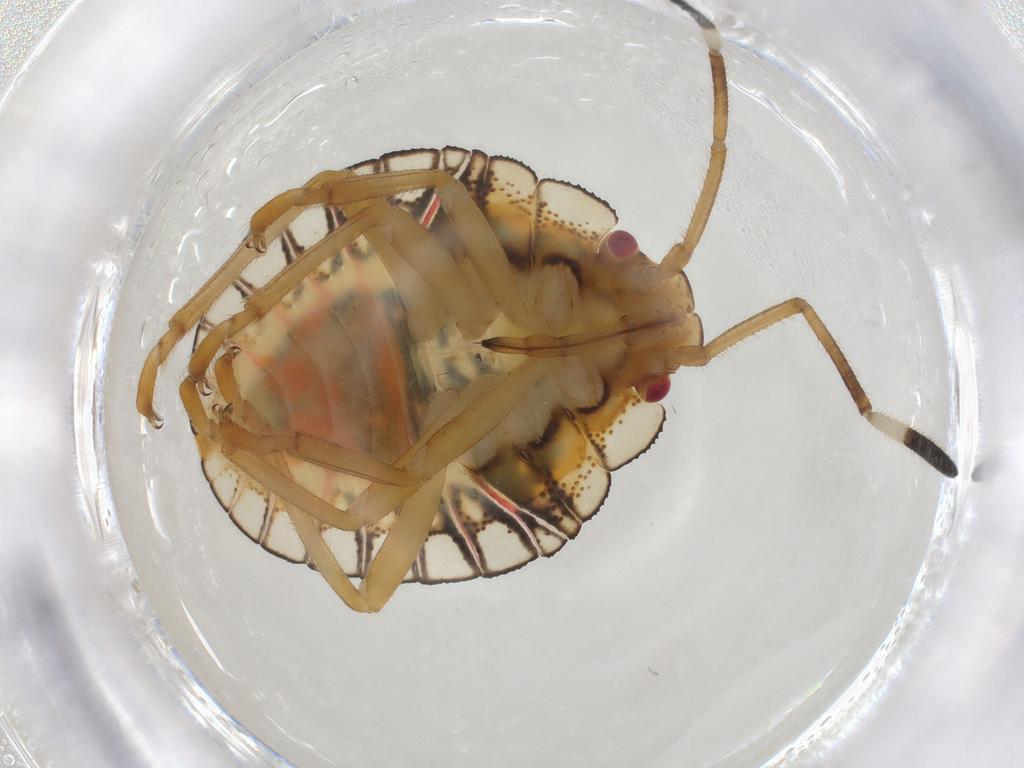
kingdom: Animalia
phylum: Arthropoda
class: Insecta
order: Hemiptera
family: Pentatomidae
